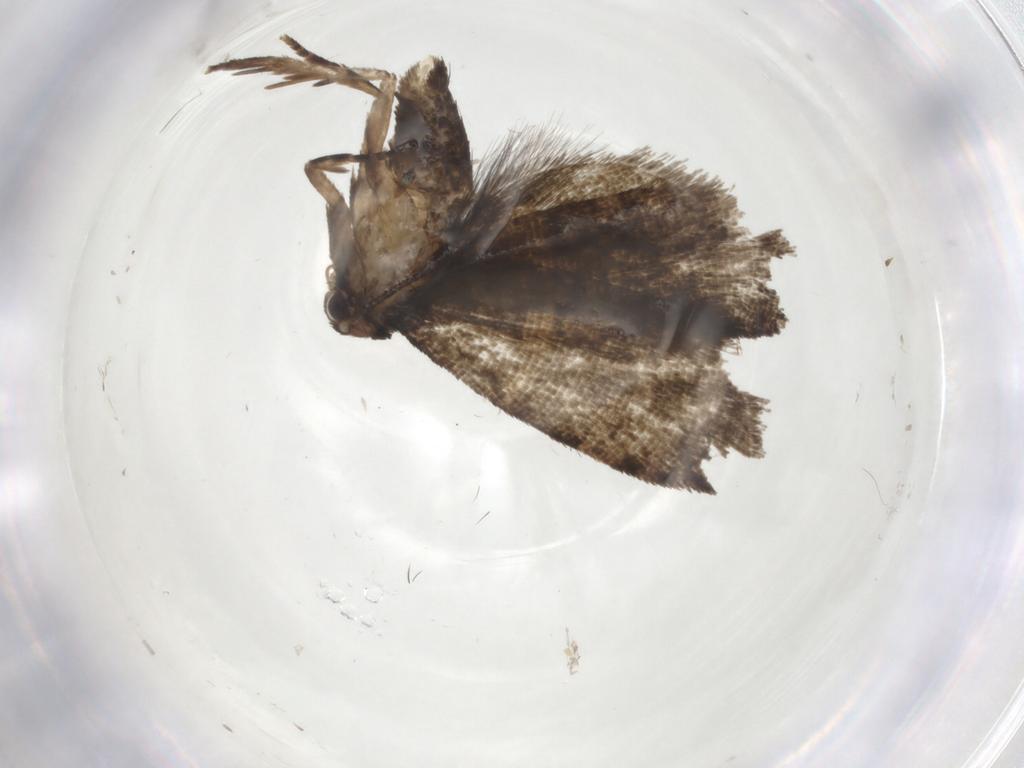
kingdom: Animalia
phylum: Arthropoda
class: Insecta
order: Lepidoptera
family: Tortricidae
